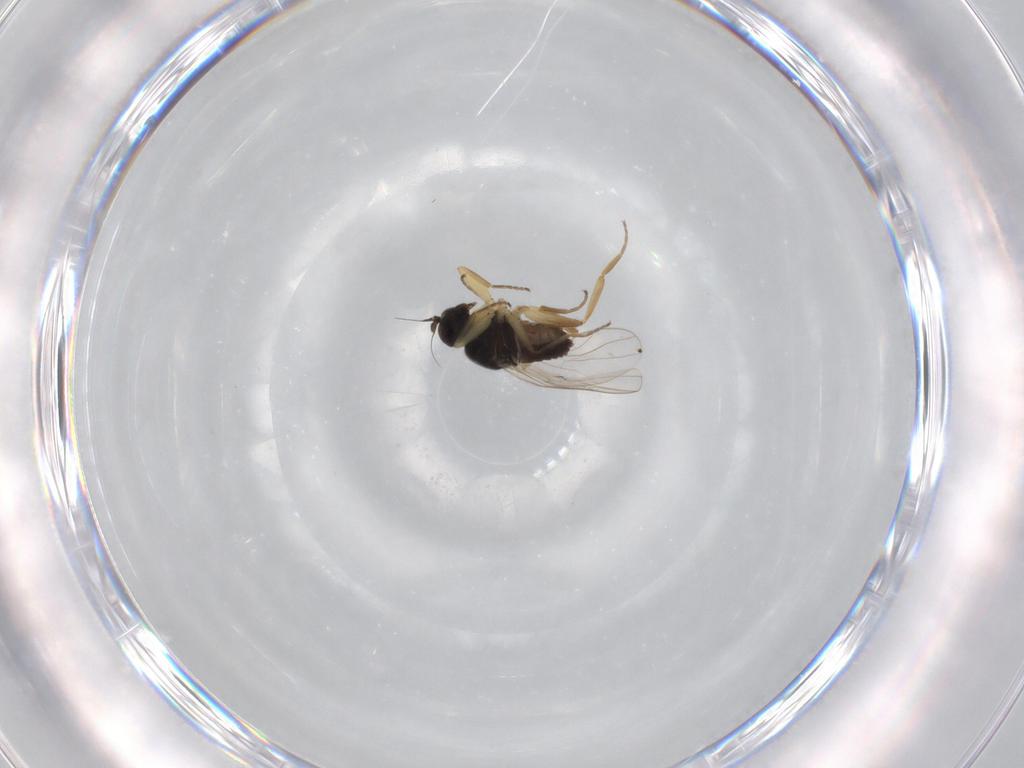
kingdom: Animalia
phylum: Arthropoda
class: Insecta
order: Diptera
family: Hybotidae
